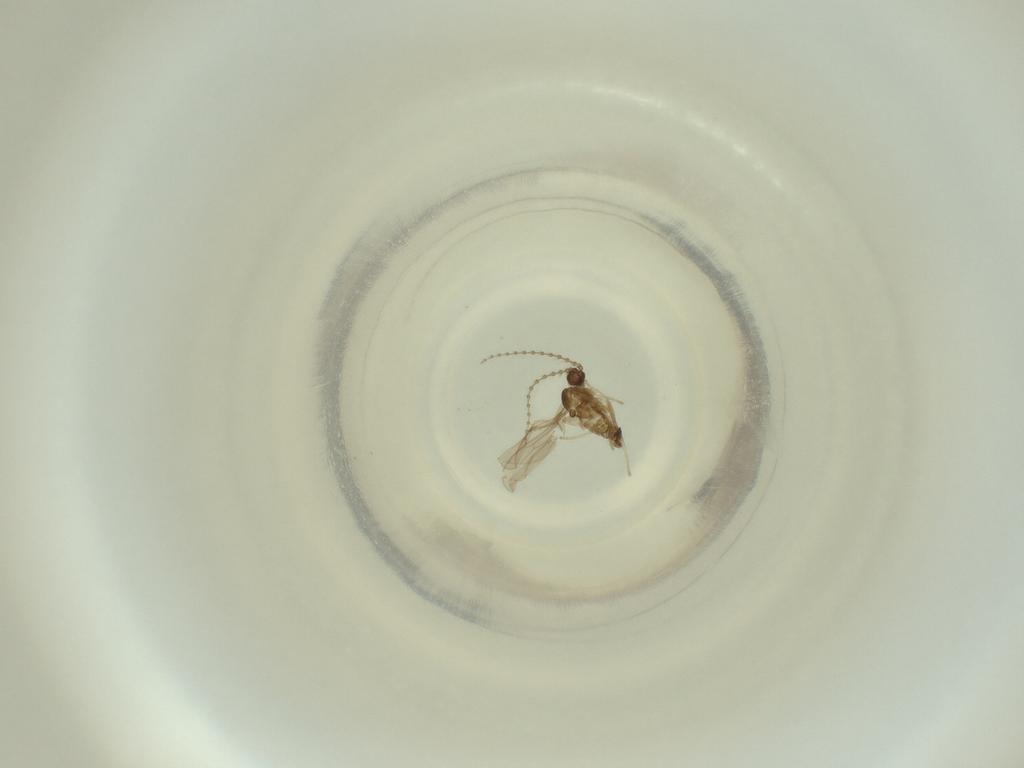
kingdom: Animalia
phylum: Arthropoda
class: Insecta
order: Diptera
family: Cecidomyiidae
